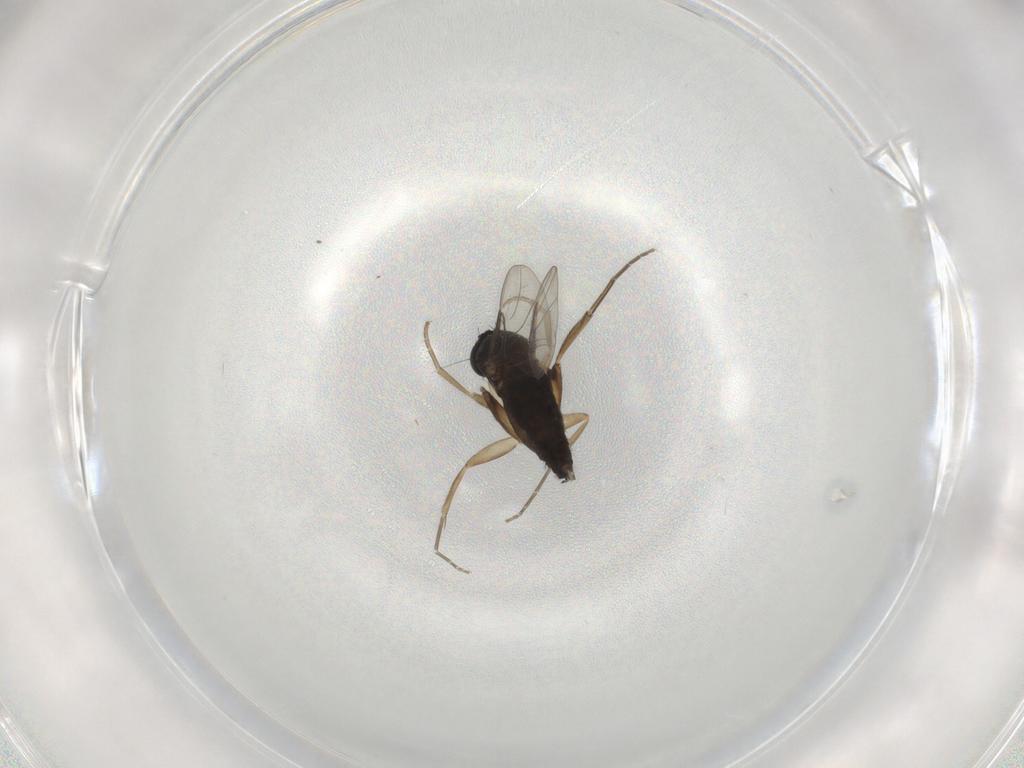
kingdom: Animalia
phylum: Arthropoda
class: Insecta
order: Diptera
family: Phoridae
